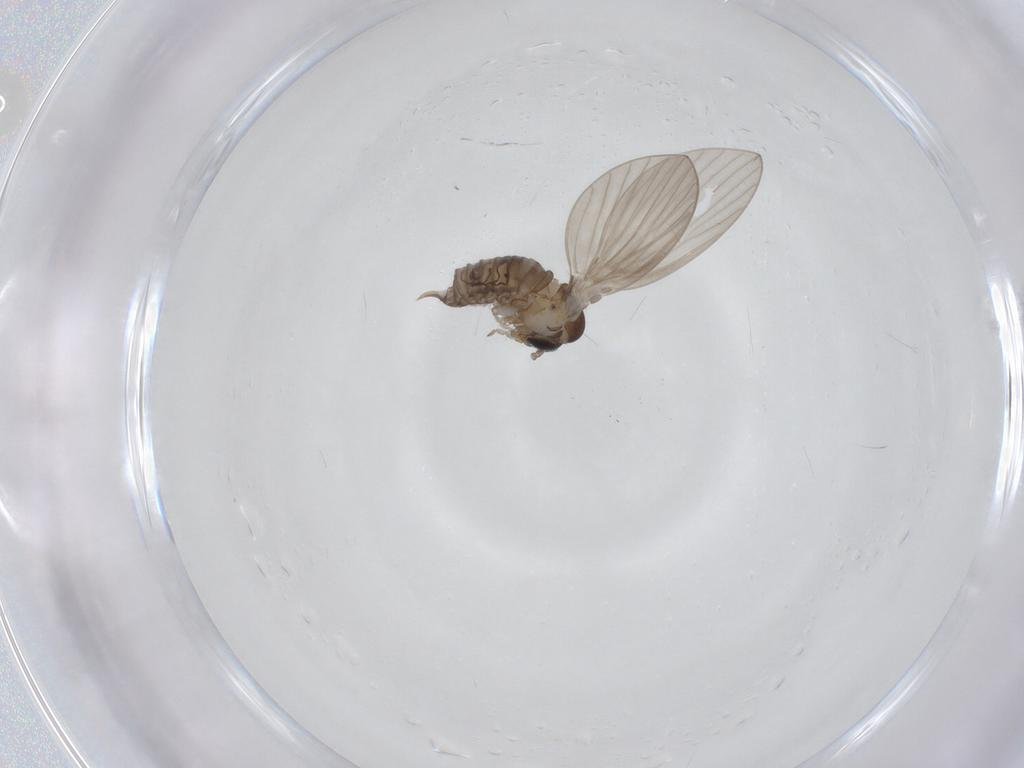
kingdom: Animalia
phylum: Arthropoda
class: Insecta
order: Diptera
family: Psychodidae
